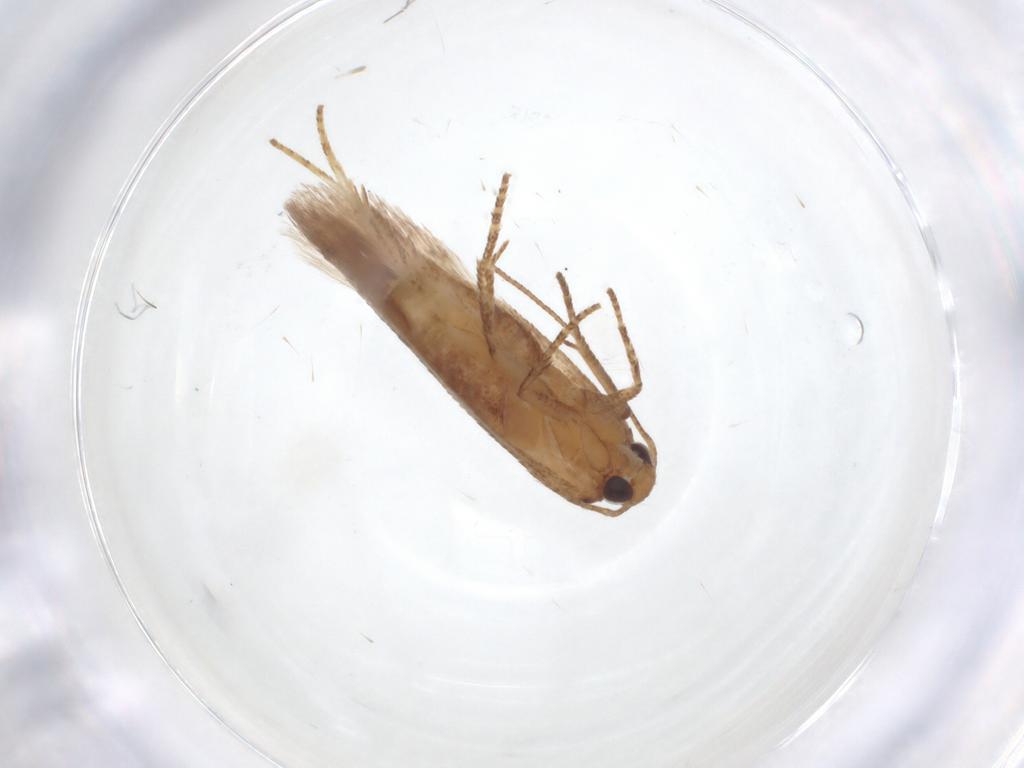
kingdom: Animalia
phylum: Arthropoda
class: Insecta
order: Lepidoptera
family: Gelechiidae
